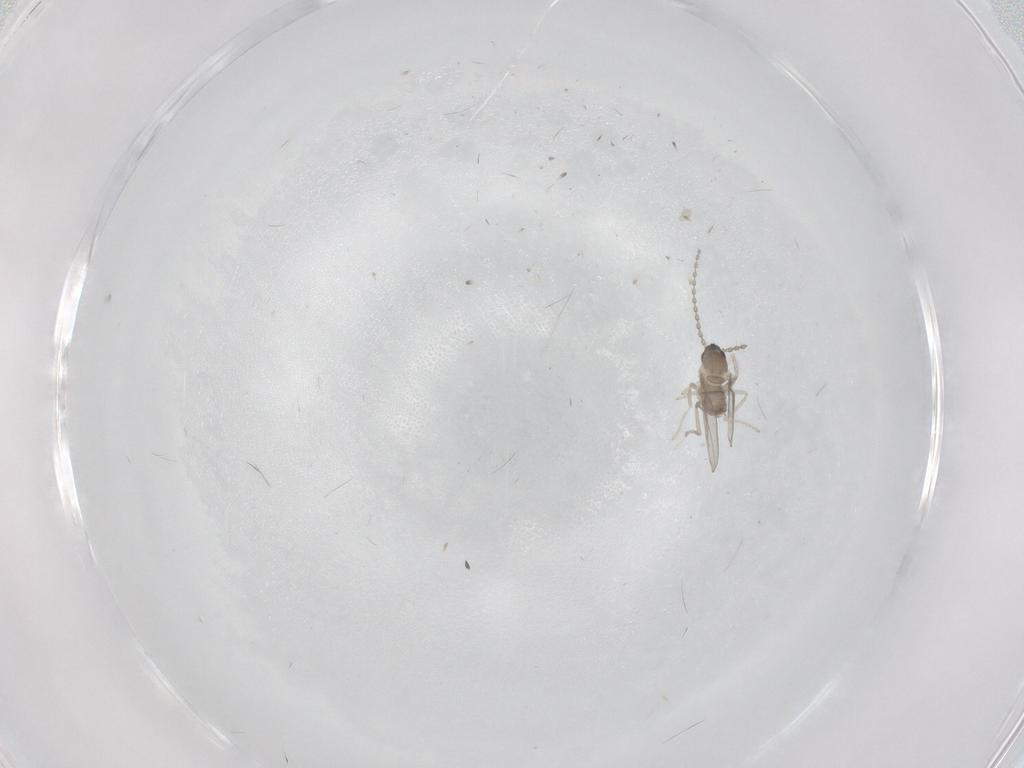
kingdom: Animalia
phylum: Arthropoda
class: Insecta
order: Diptera
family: Cecidomyiidae
